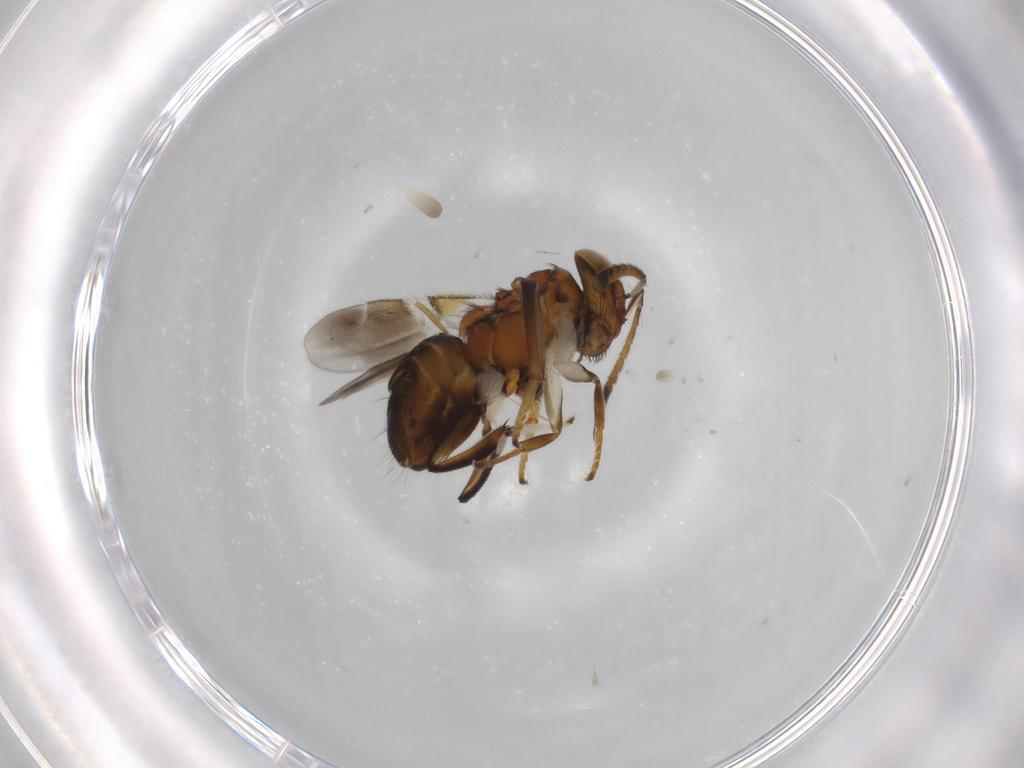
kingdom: Animalia
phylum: Arthropoda
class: Insecta
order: Hymenoptera
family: Eulophidae
